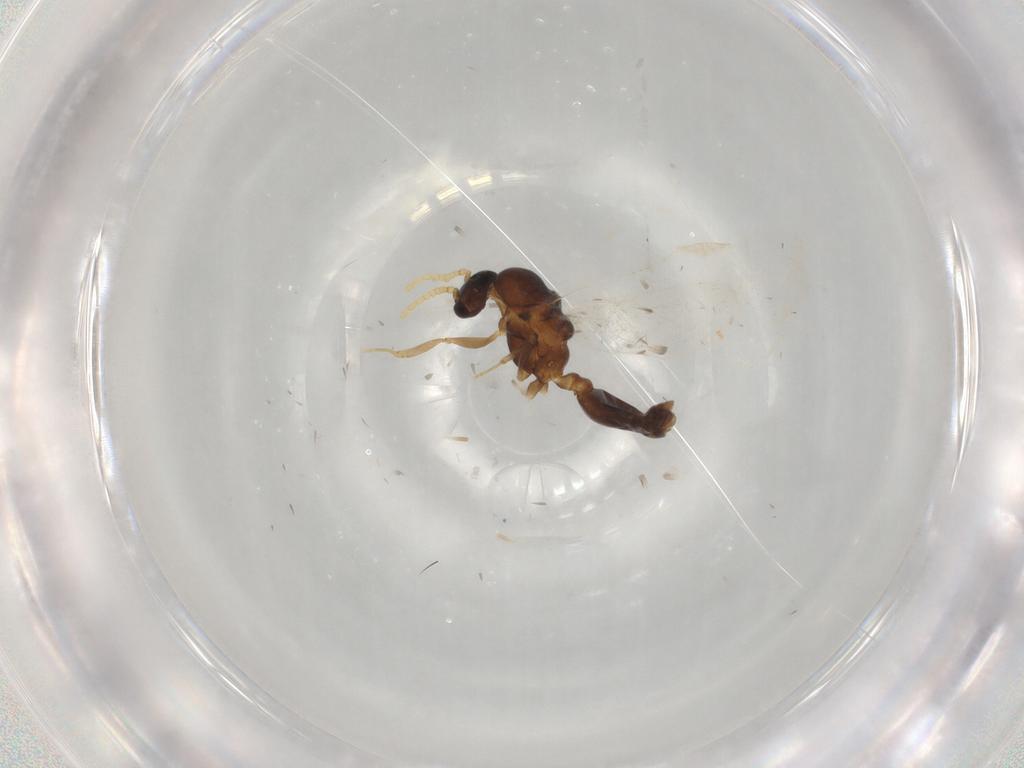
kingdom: Animalia
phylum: Arthropoda
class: Insecta
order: Hymenoptera
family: Formicidae
